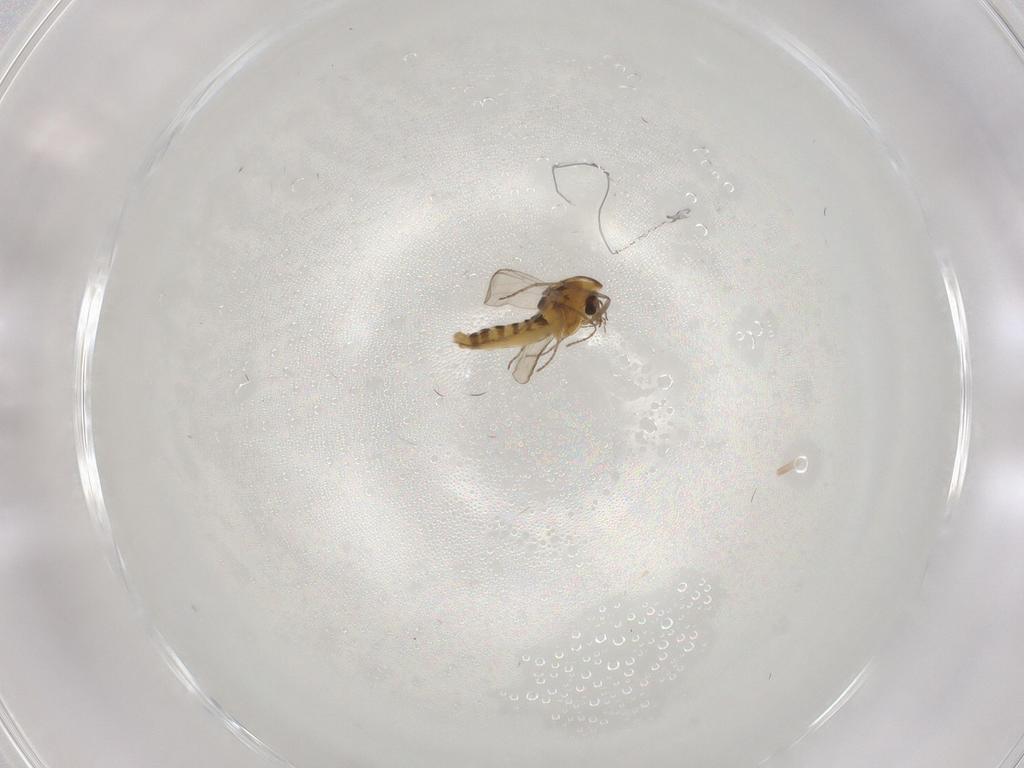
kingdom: Animalia
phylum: Arthropoda
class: Insecta
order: Diptera
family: Phoridae
